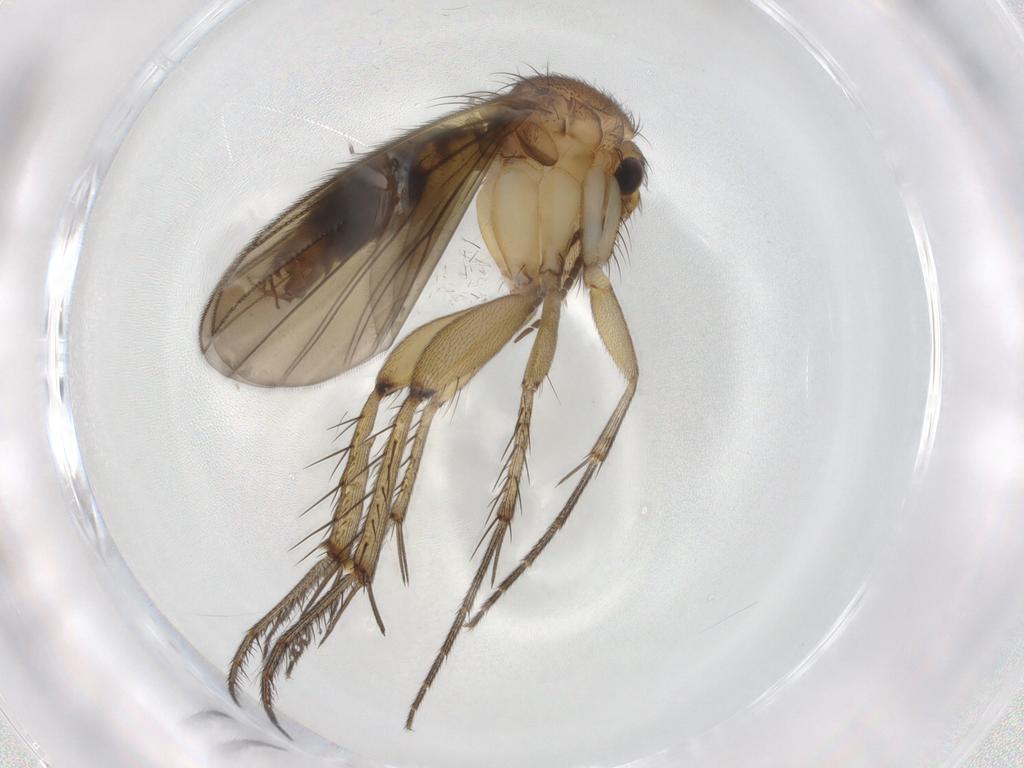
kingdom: Animalia
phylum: Arthropoda
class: Insecta
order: Diptera
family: Mycetophilidae
